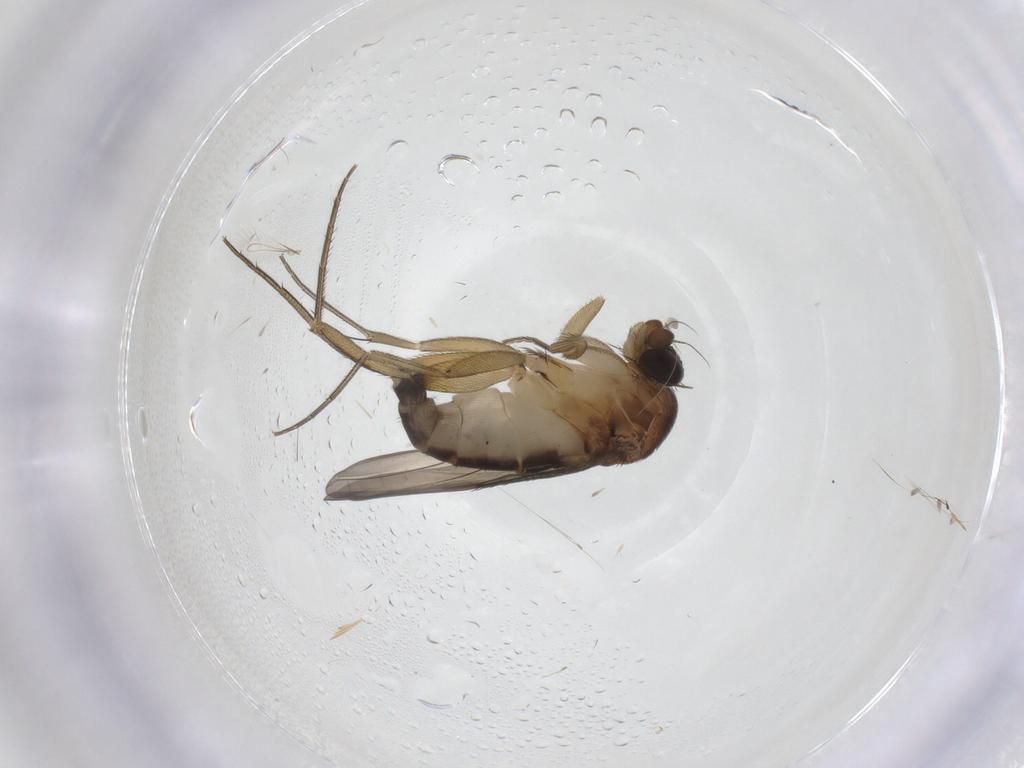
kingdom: Animalia
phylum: Arthropoda
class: Insecta
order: Diptera
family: Phoridae
